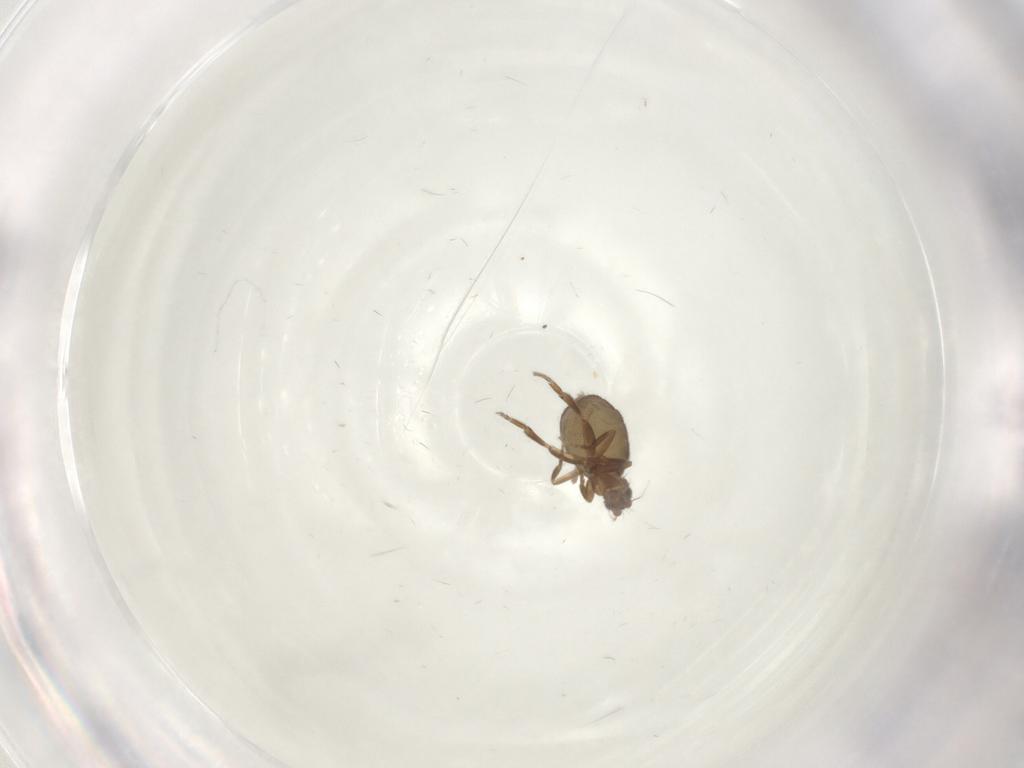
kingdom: Animalia
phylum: Arthropoda
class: Insecta
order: Diptera
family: Phoridae
